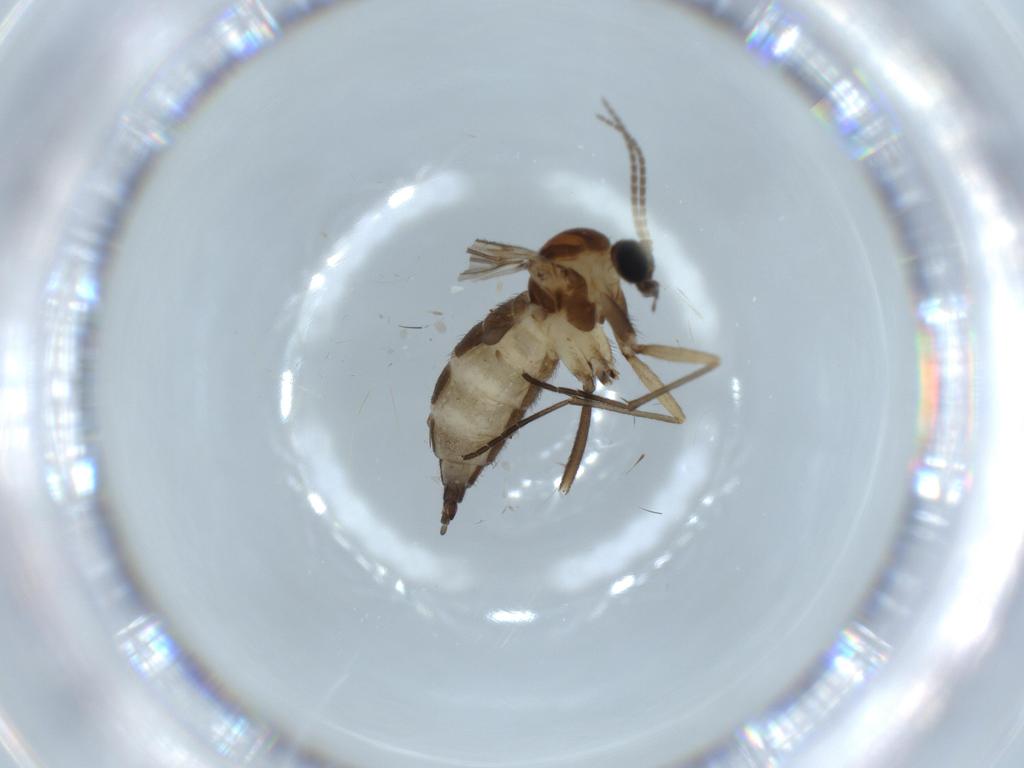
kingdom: Animalia
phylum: Arthropoda
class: Insecta
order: Diptera
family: Sciaridae
